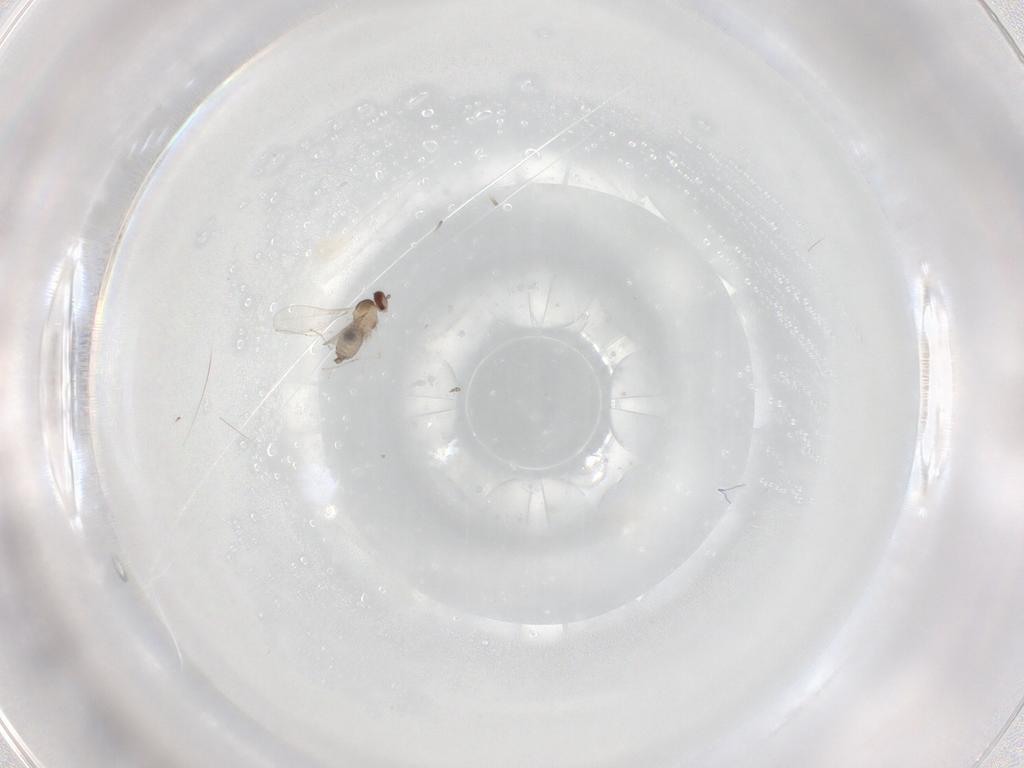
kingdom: Animalia
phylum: Arthropoda
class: Insecta
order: Diptera
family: Cecidomyiidae
